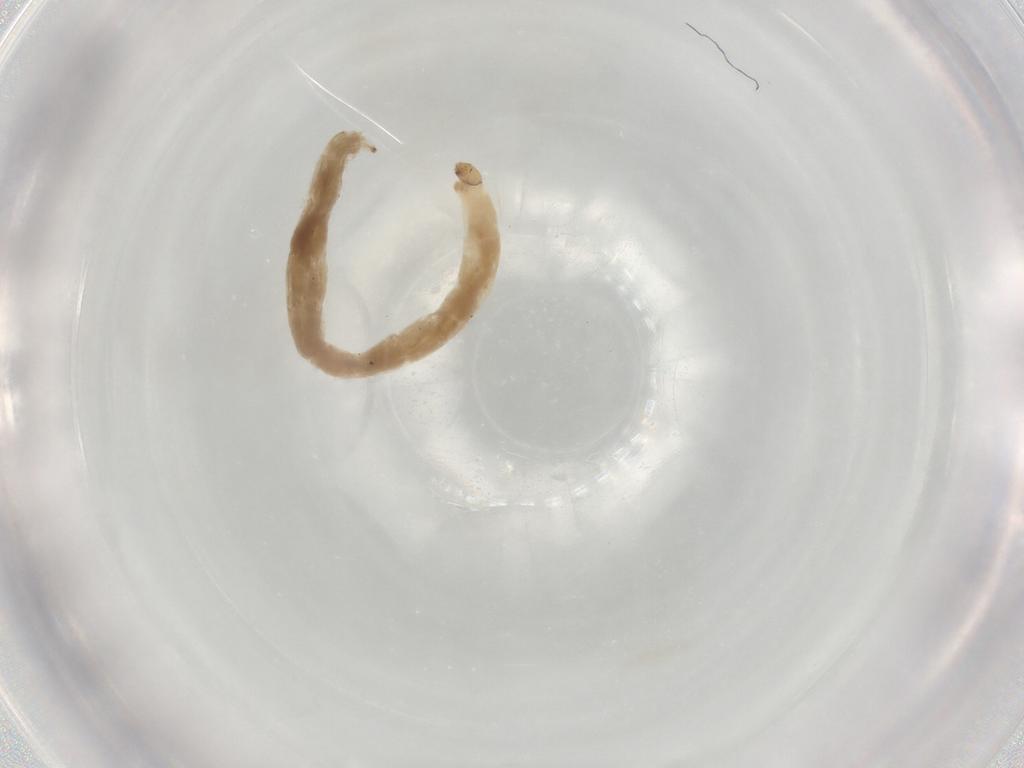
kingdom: Animalia
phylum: Arthropoda
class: Insecta
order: Diptera
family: Chironomidae
